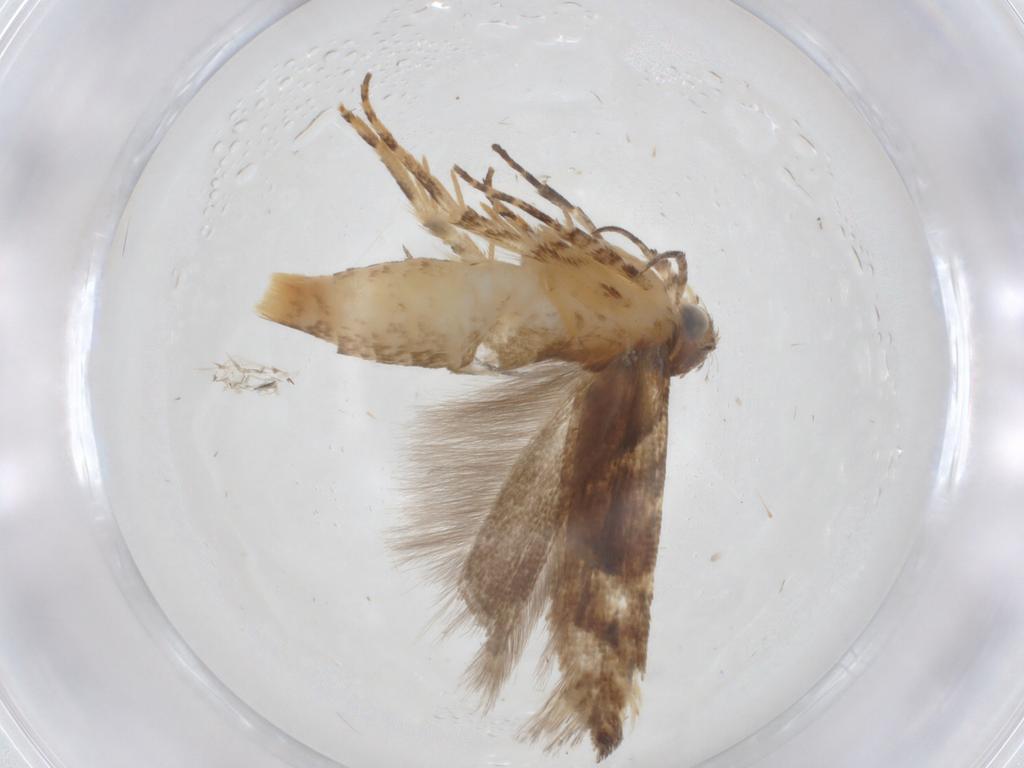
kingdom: Animalia
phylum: Arthropoda
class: Insecta
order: Lepidoptera
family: Gelechiidae
